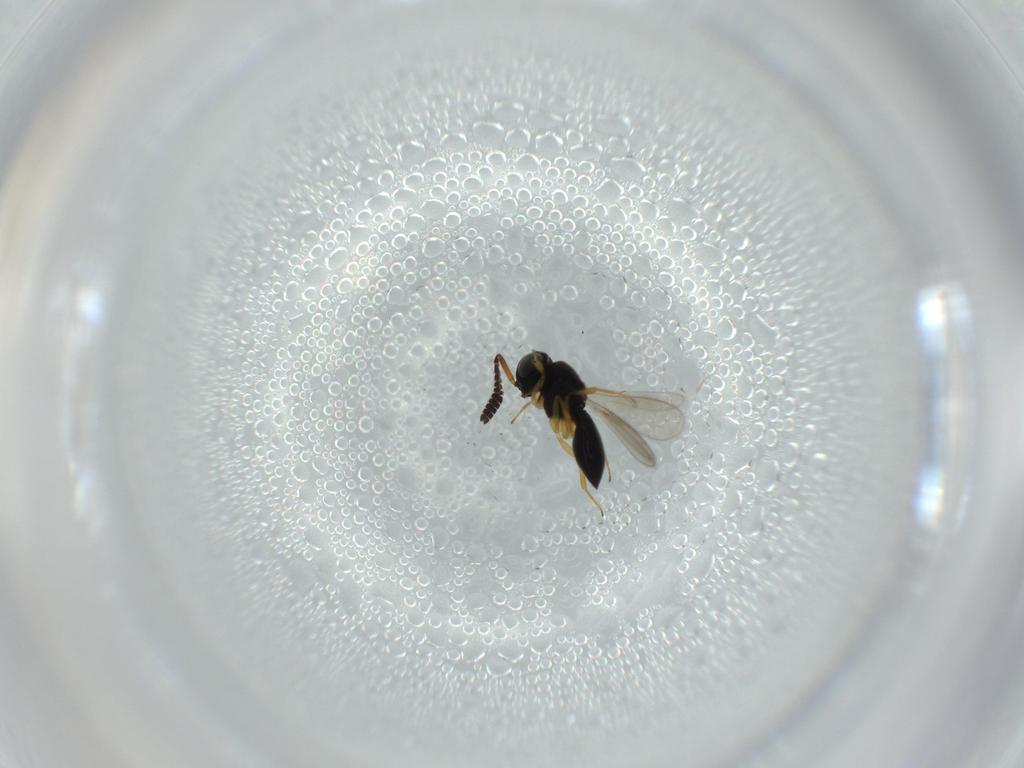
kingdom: Animalia
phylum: Arthropoda
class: Insecta
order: Hymenoptera
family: Scelionidae
